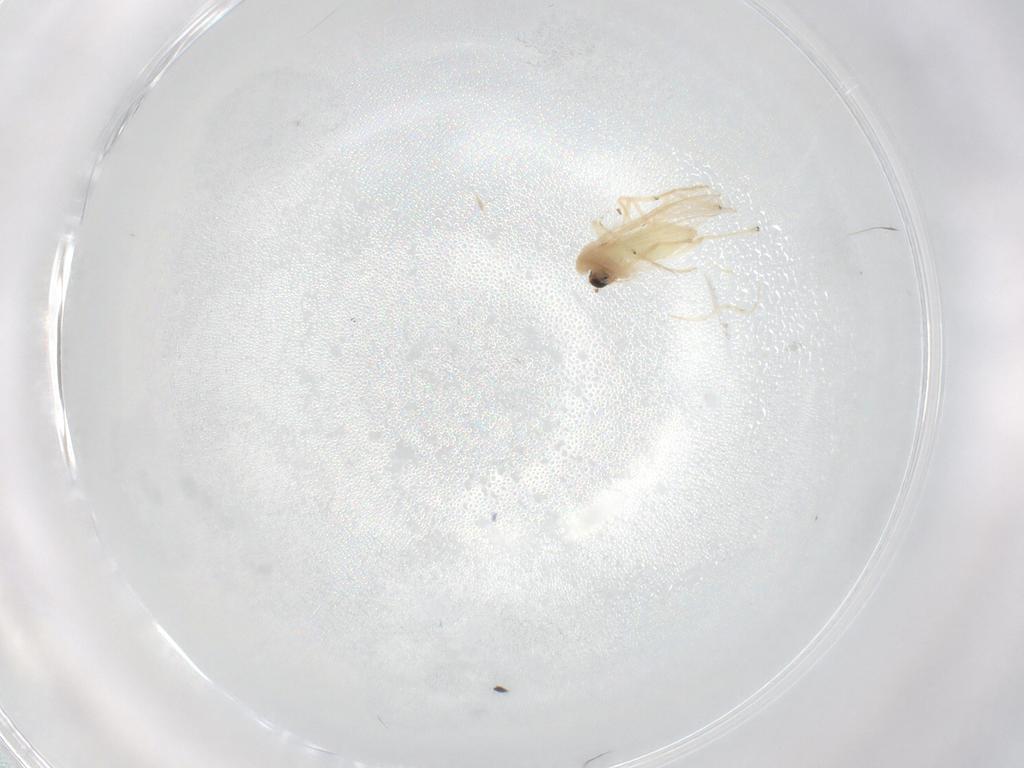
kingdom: Animalia
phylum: Arthropoda
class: Insecta
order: Diptera
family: Chironomidae
